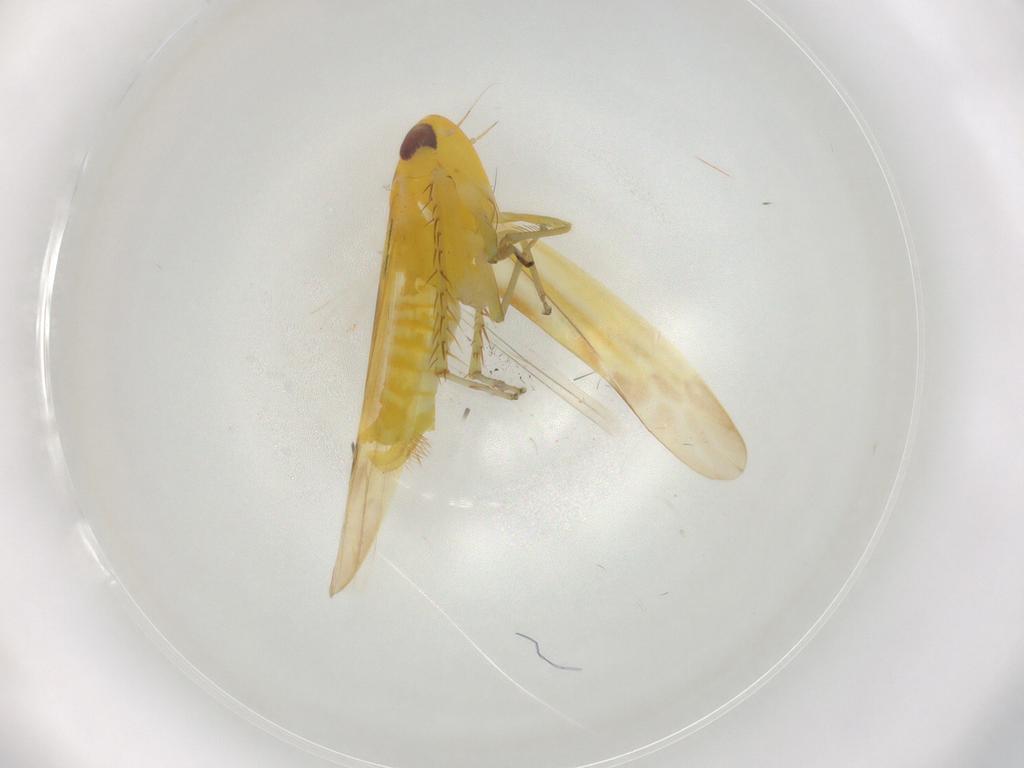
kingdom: Animalia
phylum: Arthropoda
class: Insecta
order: Hemiptera
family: Cicadellidae
